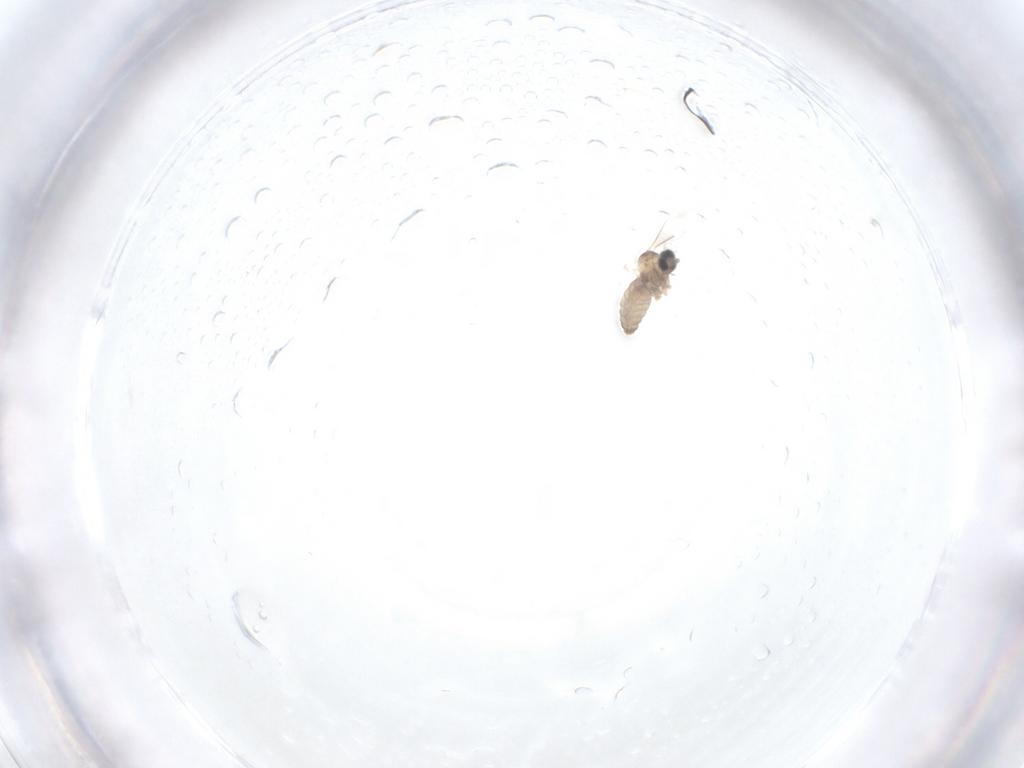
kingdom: Animalia
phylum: Arthropoda
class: Insecta
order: Diptera
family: Cecidomyiidae
